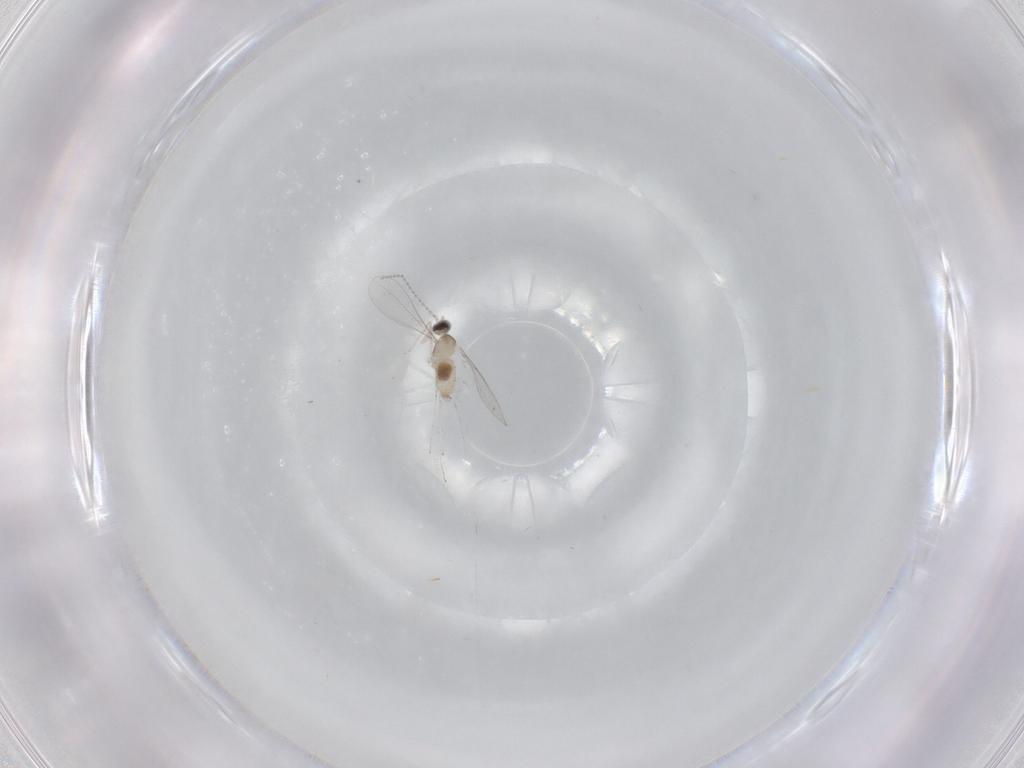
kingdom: Animalia
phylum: Arthropoda
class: Insecta
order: Diptera
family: Cecidomyiidae
